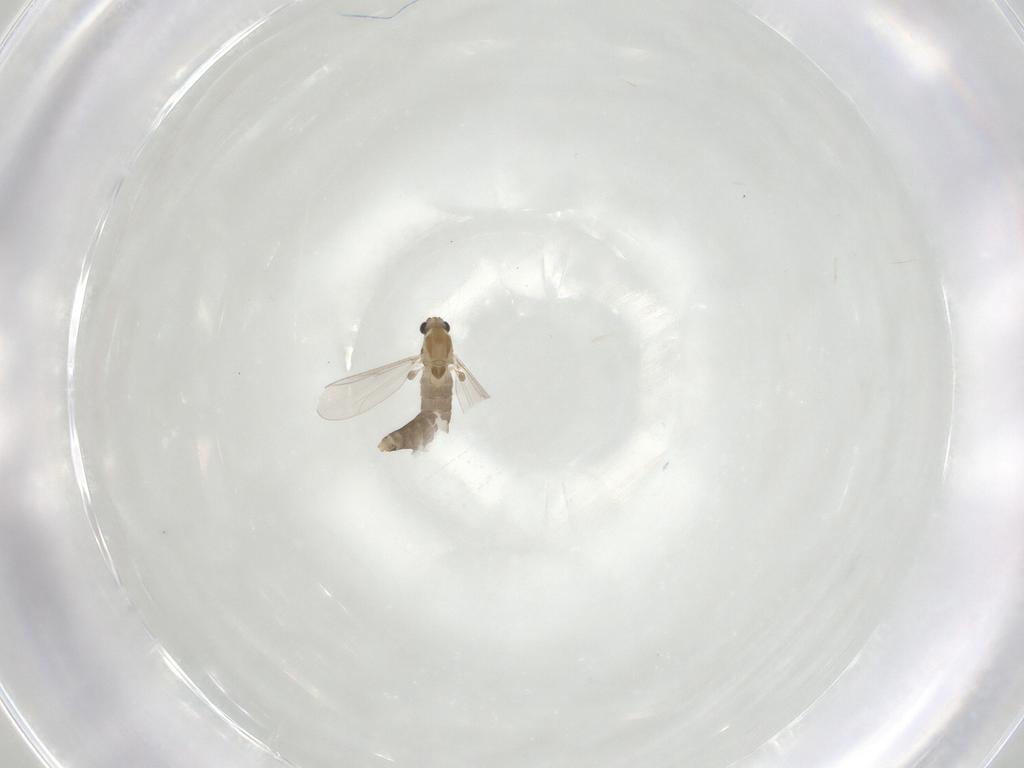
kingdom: Animalia
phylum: Arthropoda
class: Insecta
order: Diptera
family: Chironomidae
